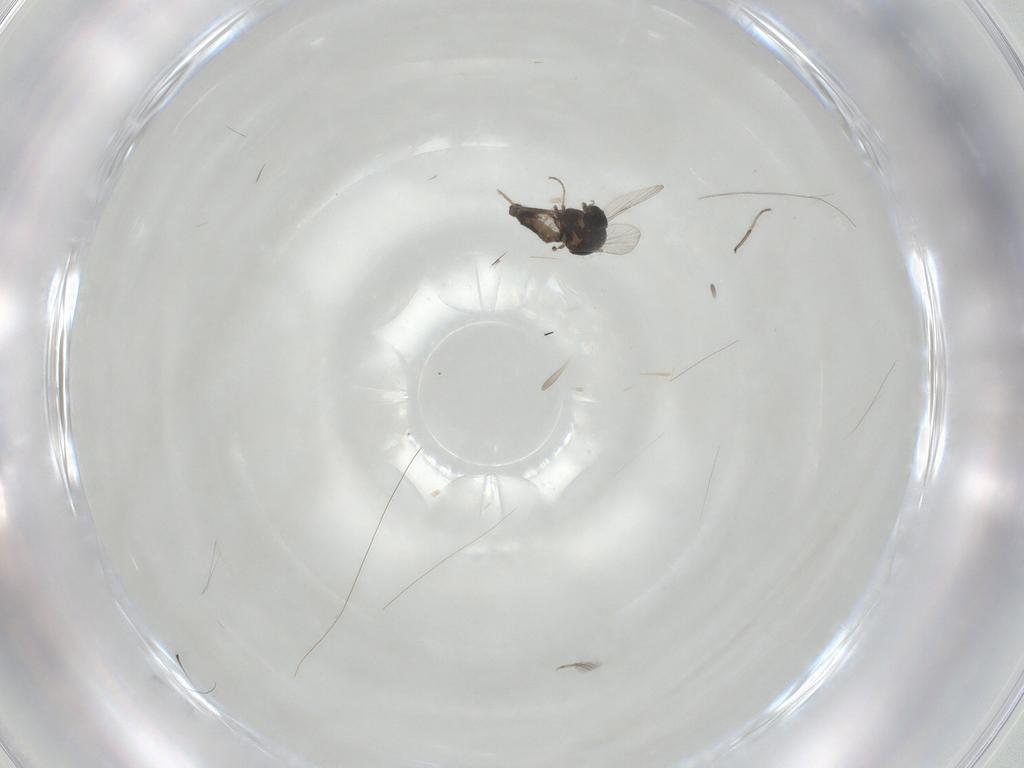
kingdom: Animalia
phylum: Arthropoda
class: Insecta
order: Diptera
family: Ceratopogonidae
